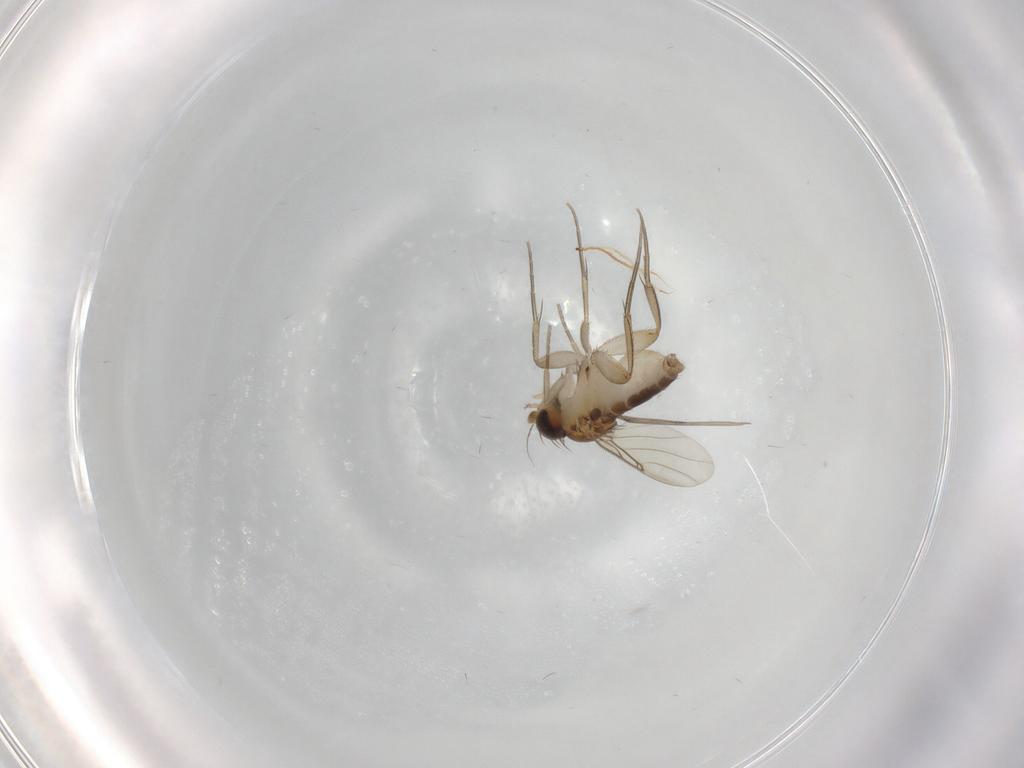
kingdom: Animalia
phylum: Arthropoda
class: Insecta
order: Diptera
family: Phoridae
